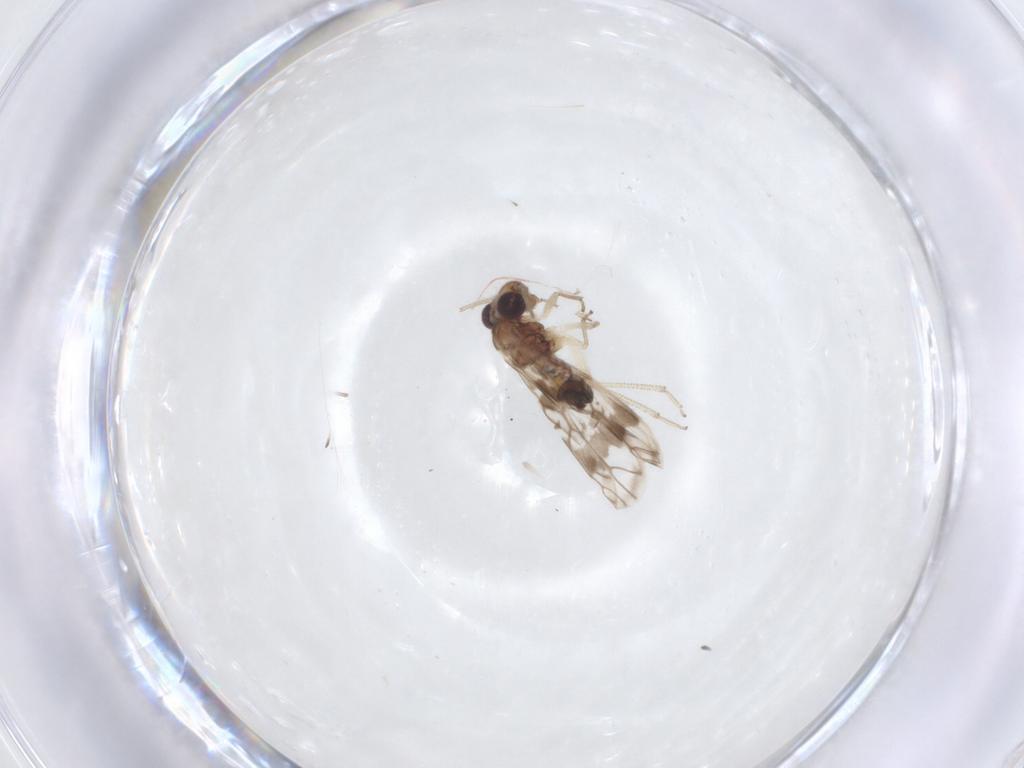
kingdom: Animalia
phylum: Arthropoda
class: Insecta
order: Psocodea
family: Pseudocaeciliidae
